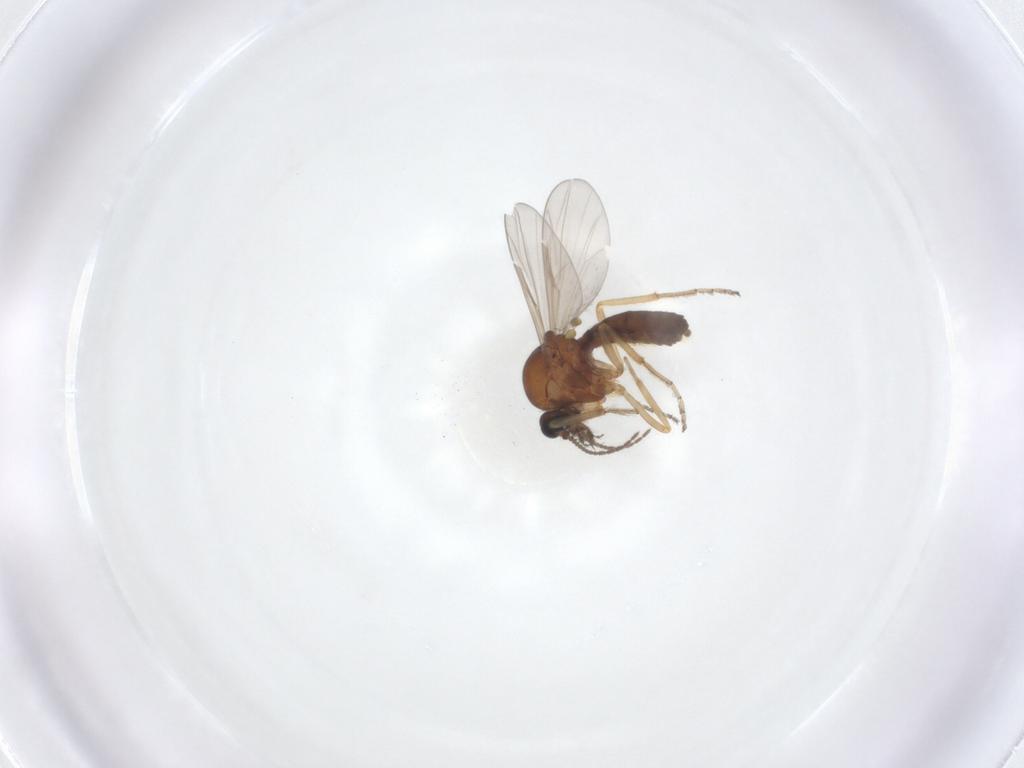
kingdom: Animalia
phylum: Arthropoda
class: Insecta
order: Diptera
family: Ceratopogonidae
